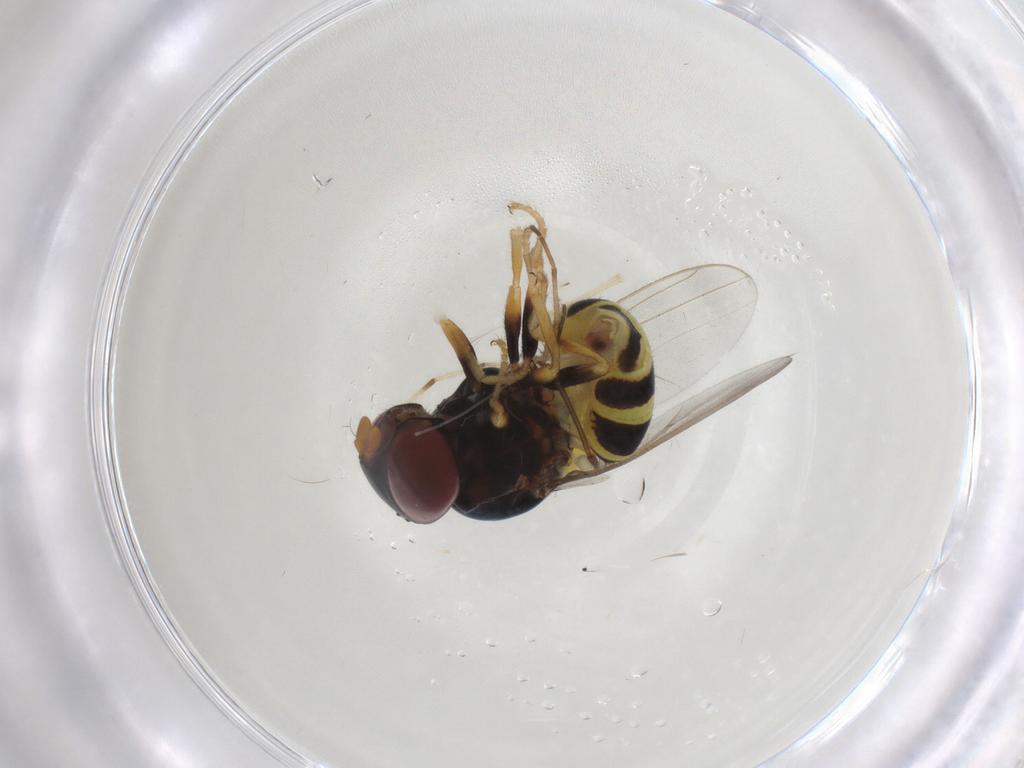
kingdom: Animalia
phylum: Arthropoda
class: Insecta
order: Diptera
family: Chloropidae
